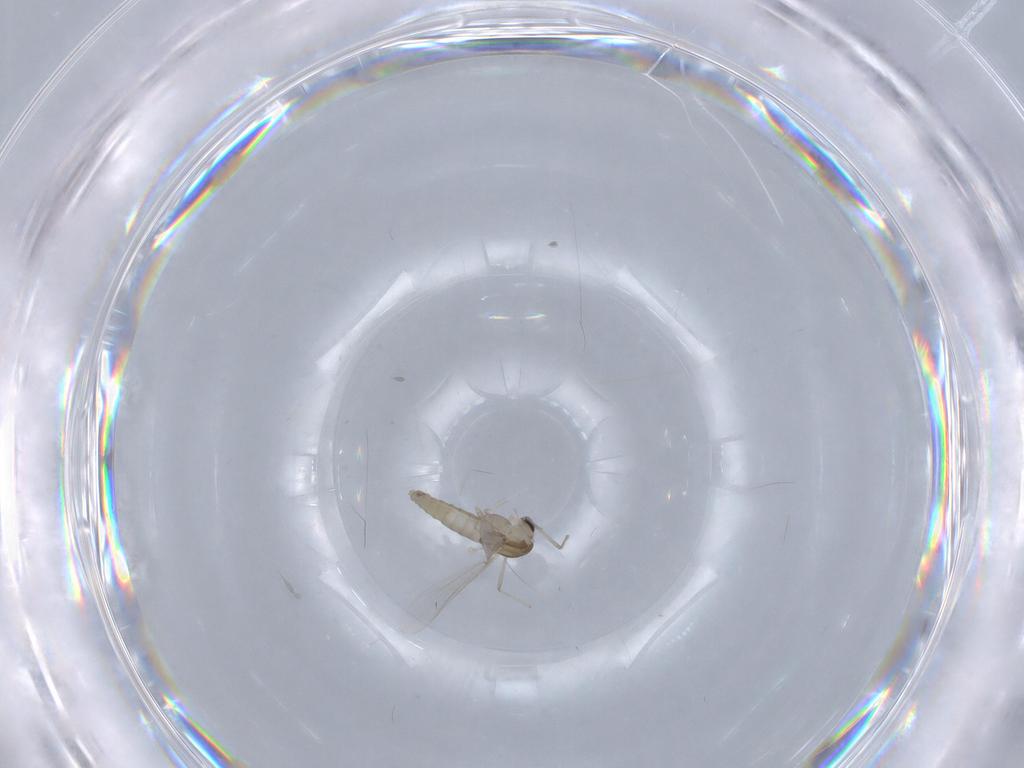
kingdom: Animalia
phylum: Arthropoda
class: Insecta
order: Diptera
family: Chironomidae
